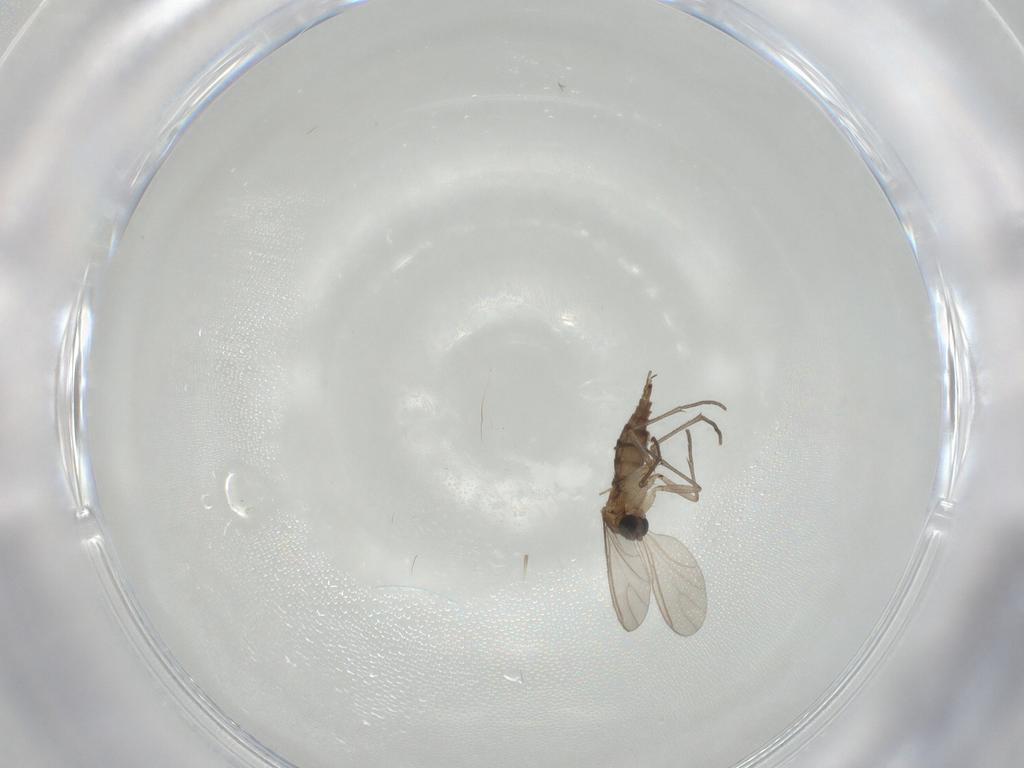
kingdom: Animalia
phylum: Arthropoda
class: Insecta
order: Diptera
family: Sciaridae
